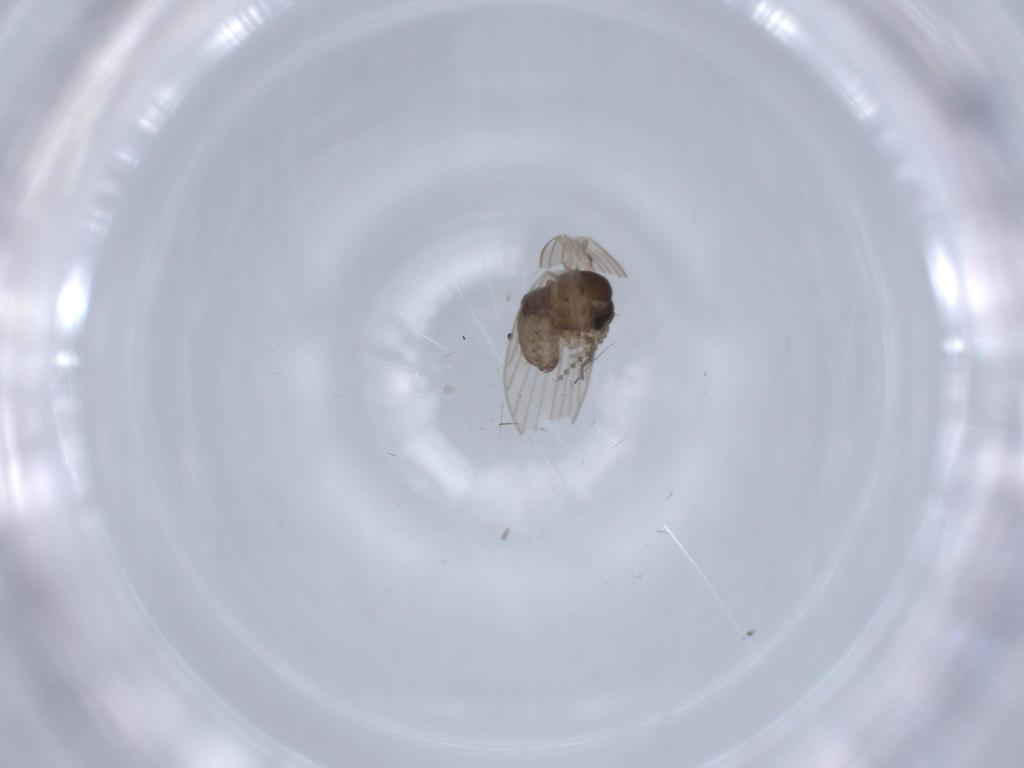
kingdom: Animalia
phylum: Arthropoda
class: Insecta
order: Diptera
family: Psychodidae
